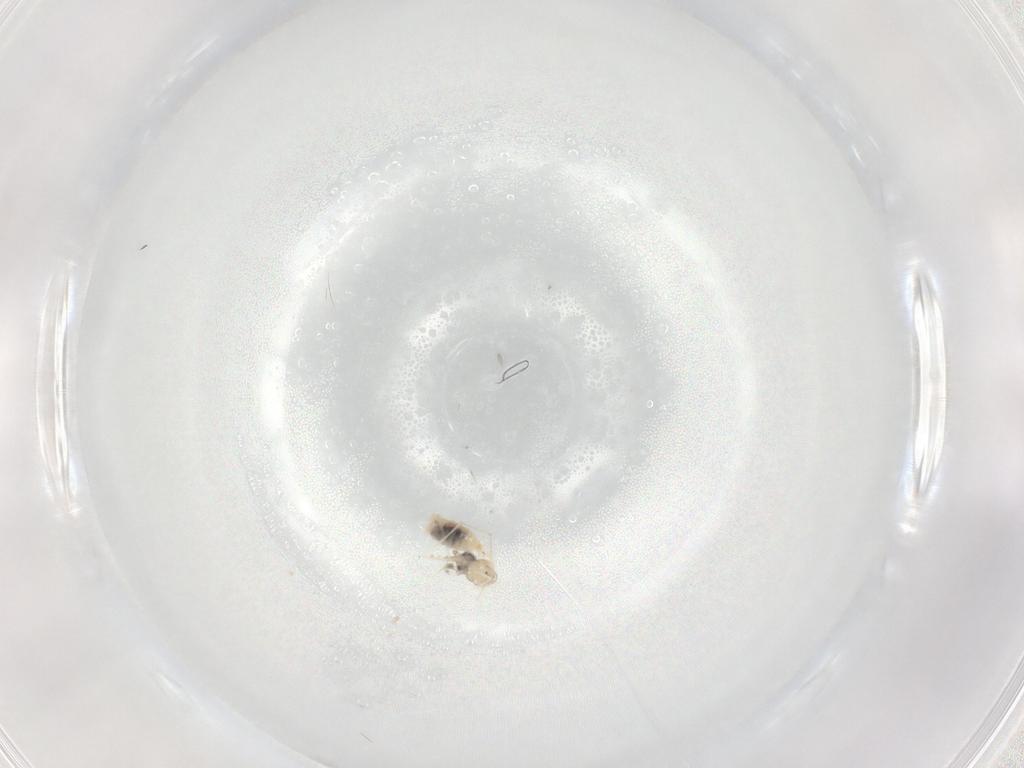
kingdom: Animalia
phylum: Arthropoda
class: Insecta
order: Diptera
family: Cecidomyiidae
